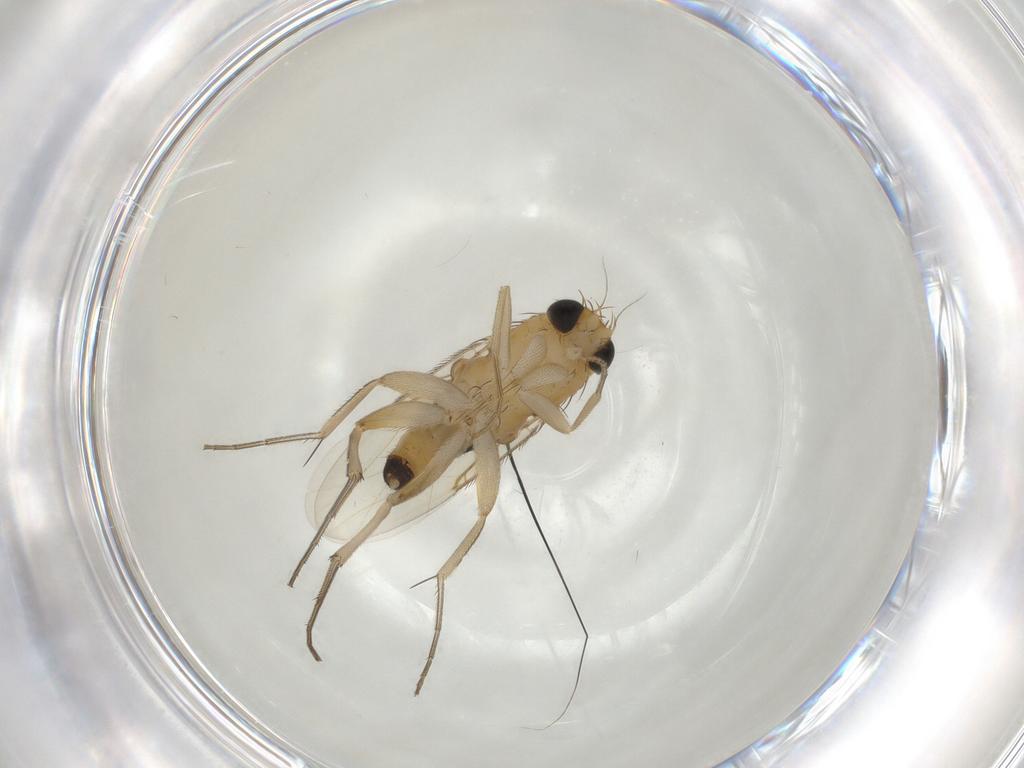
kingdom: Animalia
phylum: Arthropoda
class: Insecta
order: Diptera
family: Phoridae
